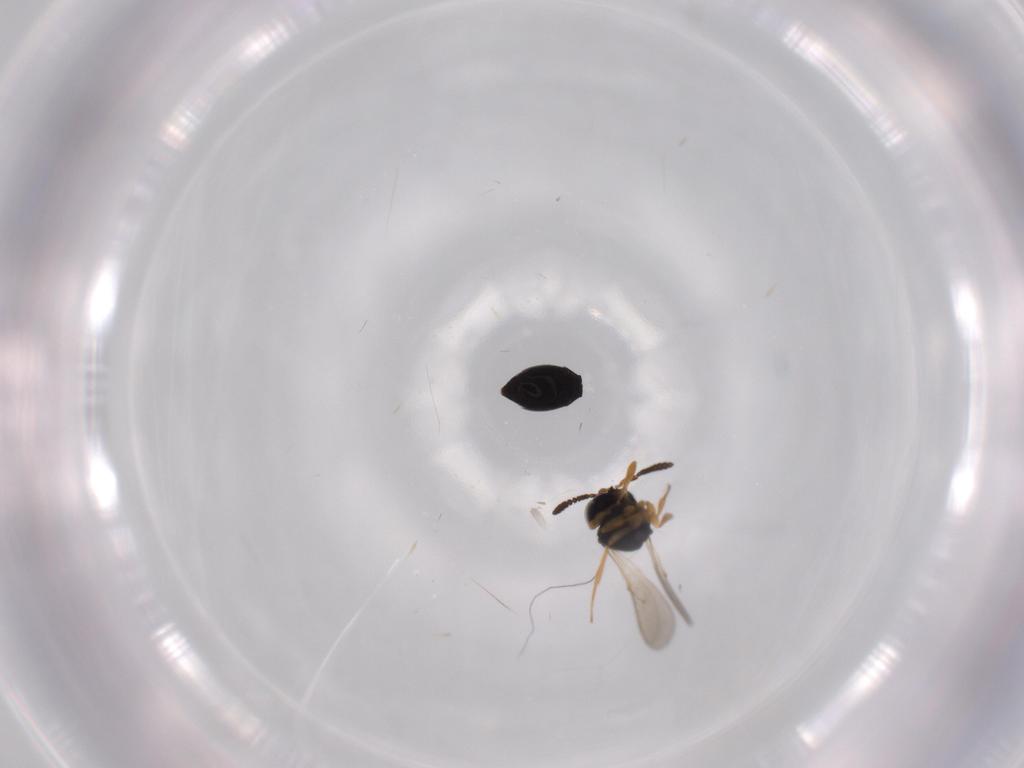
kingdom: Animalia
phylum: Arthropoda
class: Insecta
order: Hymenoptera
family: Scelionidae
